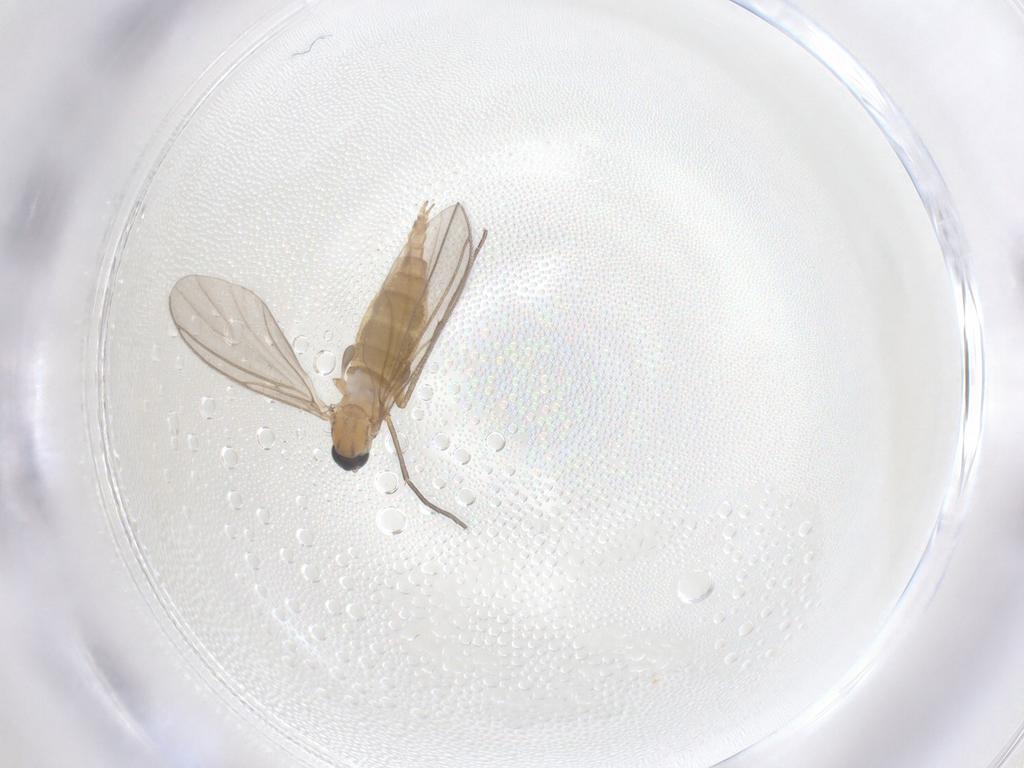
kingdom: Animalia
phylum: Arthropoda
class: Insecta
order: Diptera
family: Sciaridae
